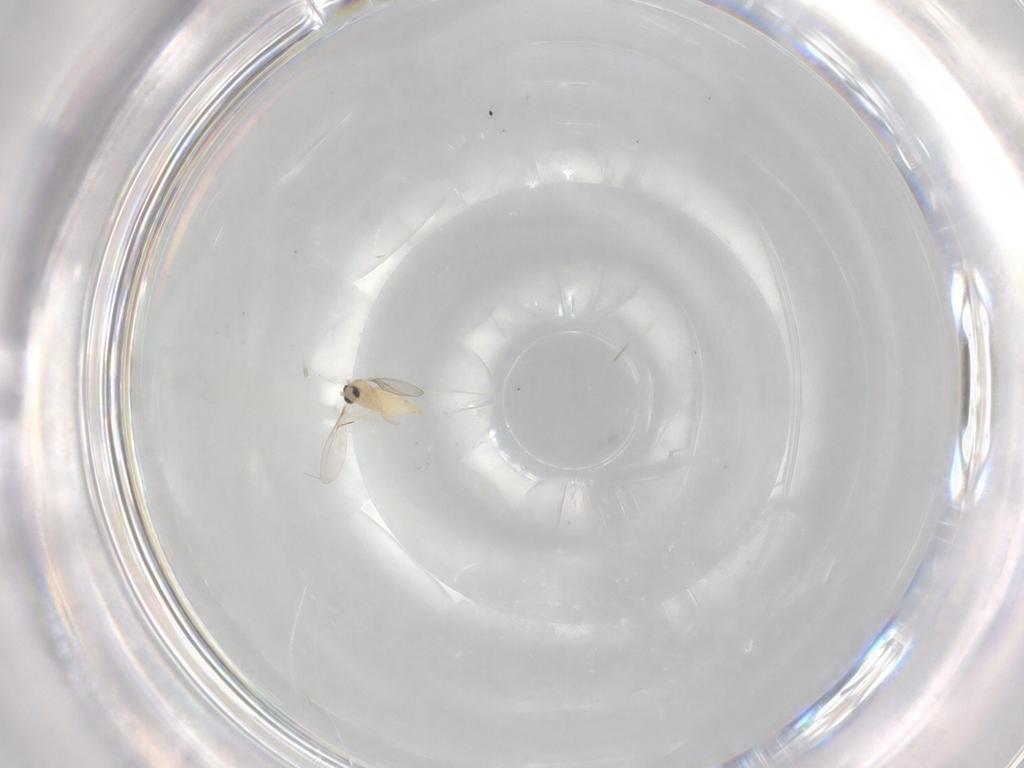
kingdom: Animalia
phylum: Arthropoda
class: Insecta
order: Diptera
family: Cecidomyiidae
